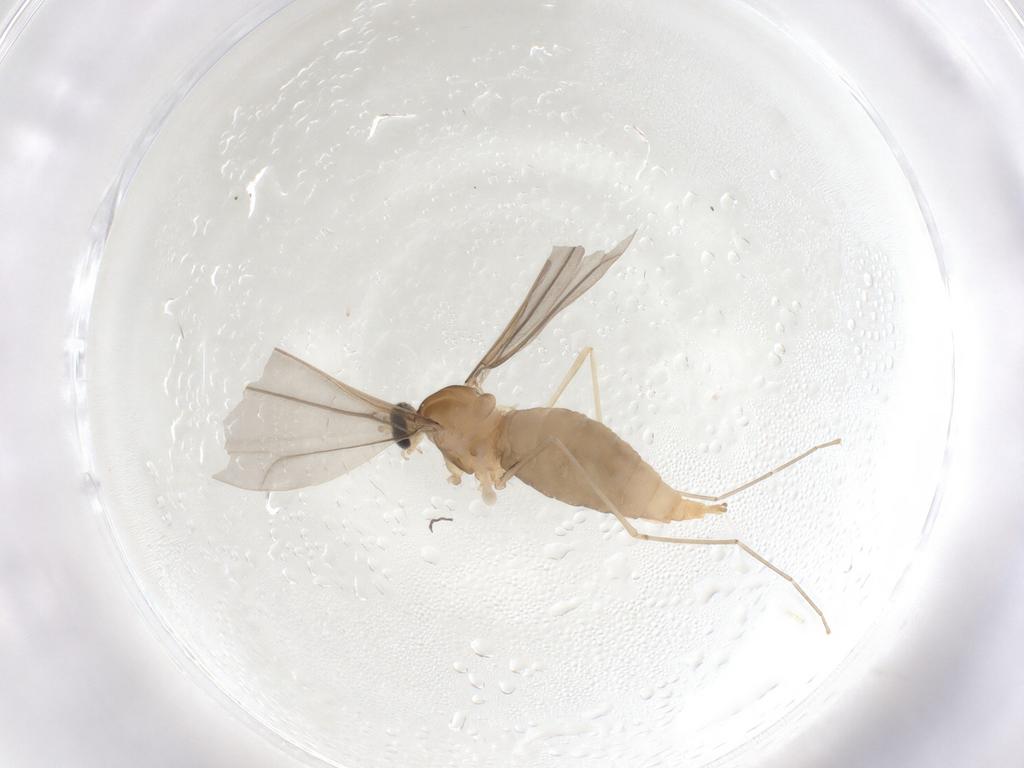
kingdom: Animalia
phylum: Arthropoda
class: Insecta
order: Diptera
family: Cecidomyiidae
